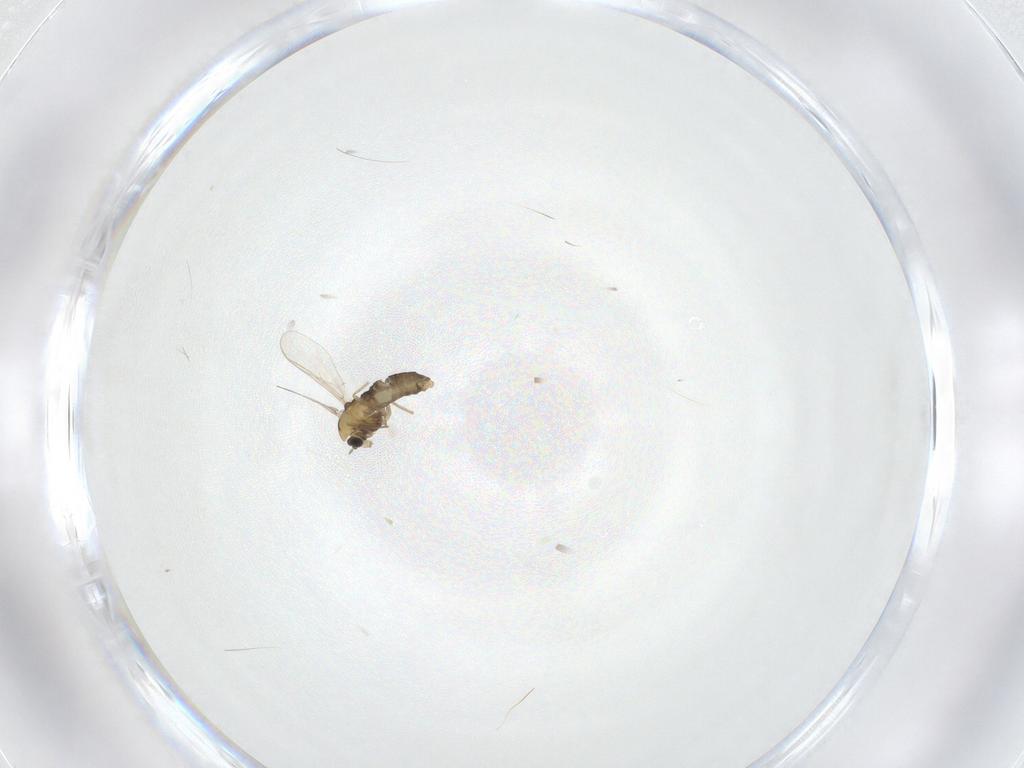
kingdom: Animalia
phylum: Arthropoda
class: Insecta
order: Diptera
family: Chironomidae
